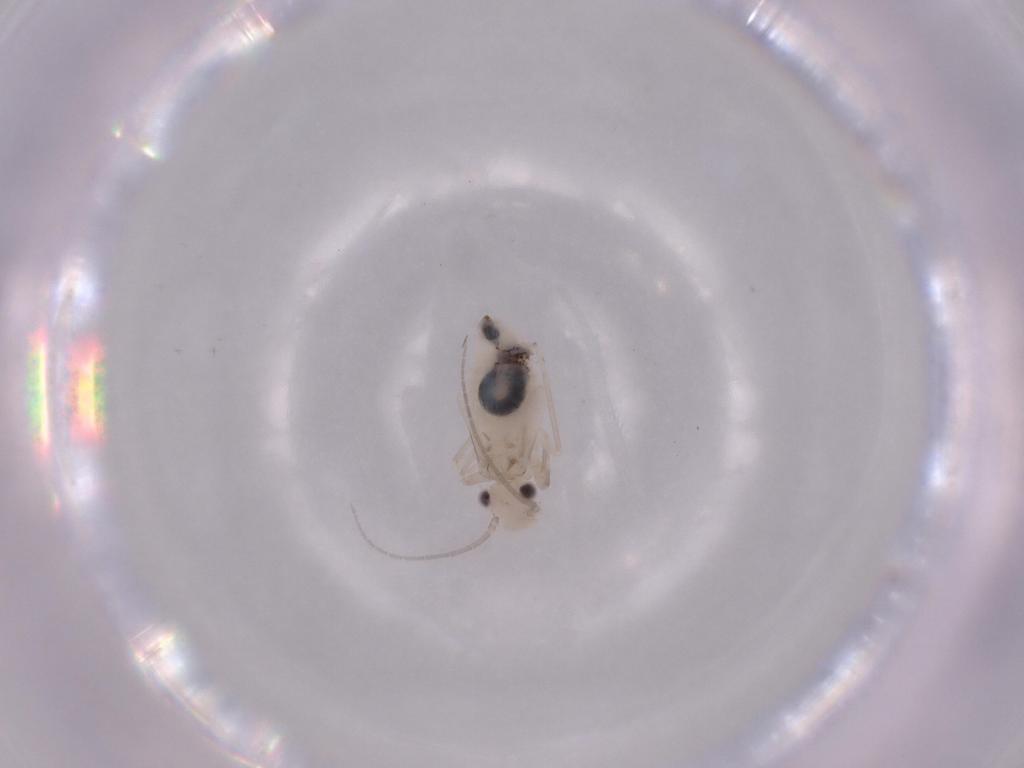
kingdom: Animalia
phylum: Arthropoda
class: Insecta
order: Psocodea
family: Caeciliusidae
